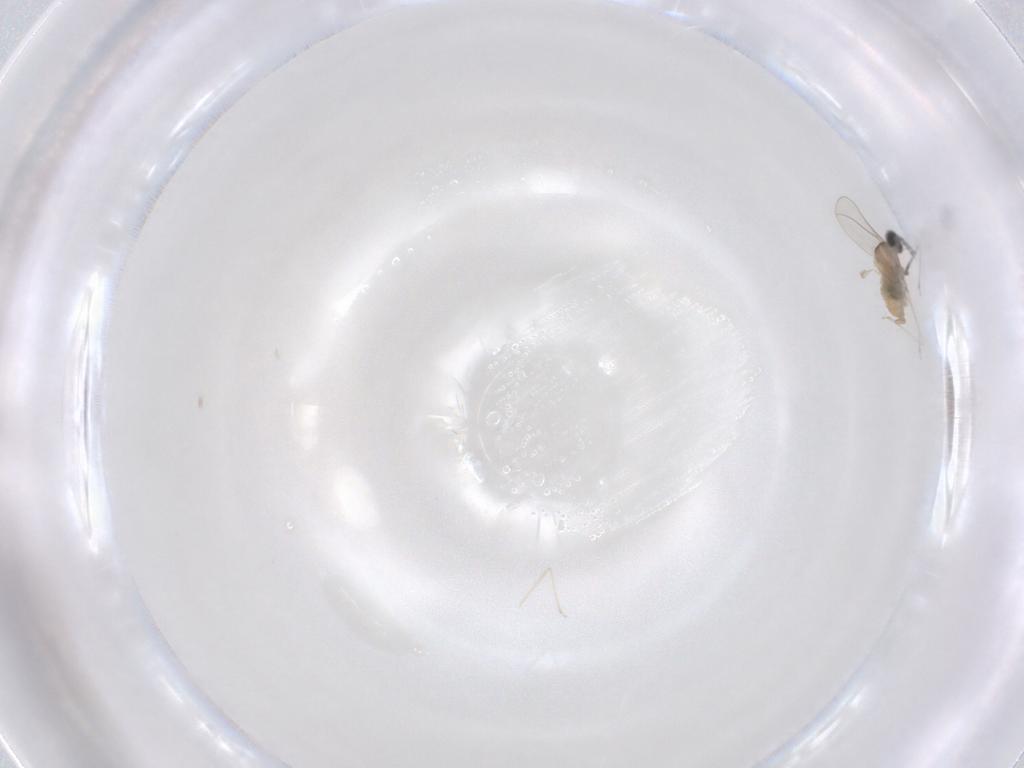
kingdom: Animalia
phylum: Arthropoda
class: Insecta
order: Diptera
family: Cecidomyiidae
